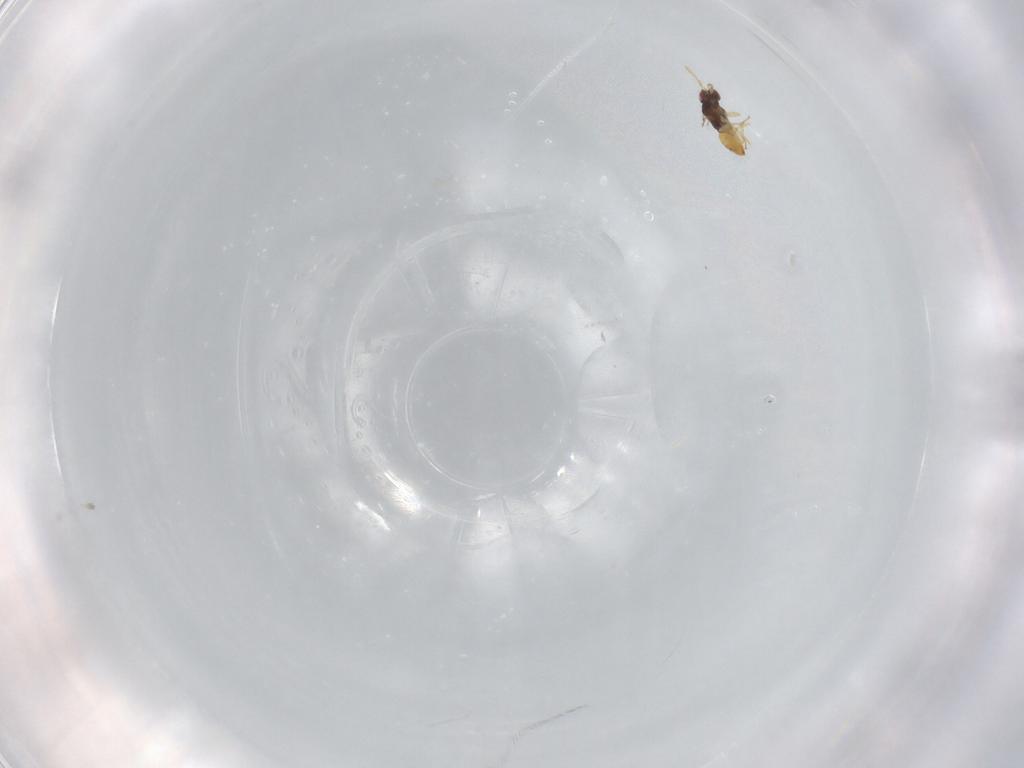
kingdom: Animalia
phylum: Arthropoda
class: Insecta
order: Hymenoptera
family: Eulophidae
